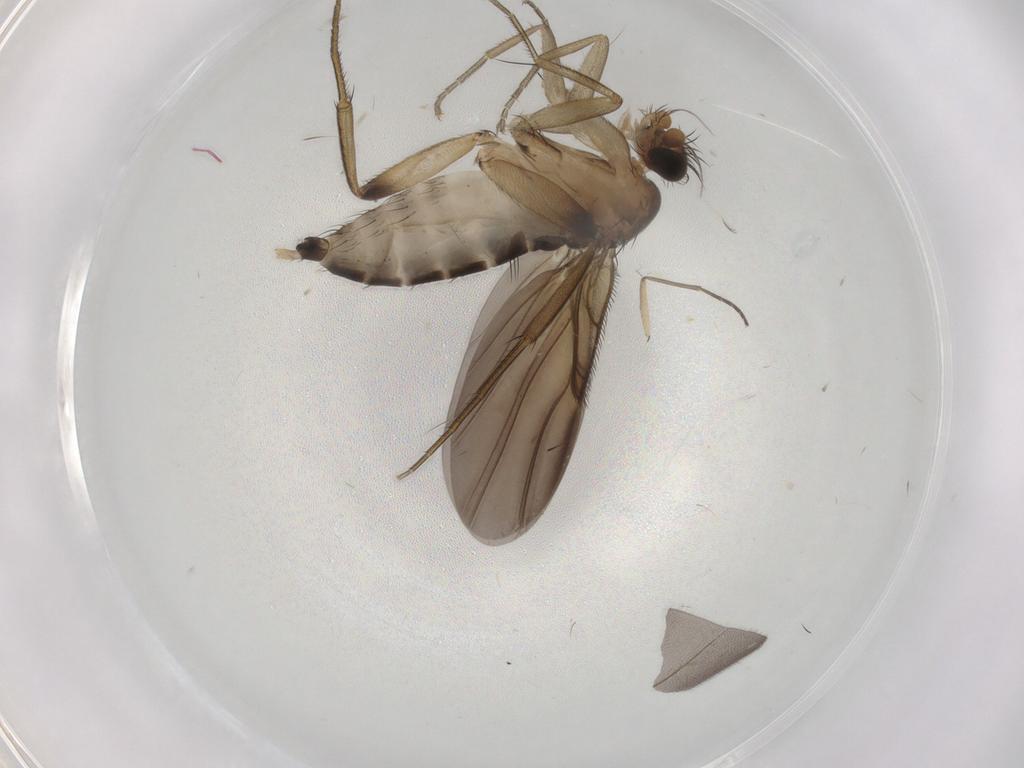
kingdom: Animalia
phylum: Arthropoda
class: Insecta
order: Diptera
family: Phoridae
